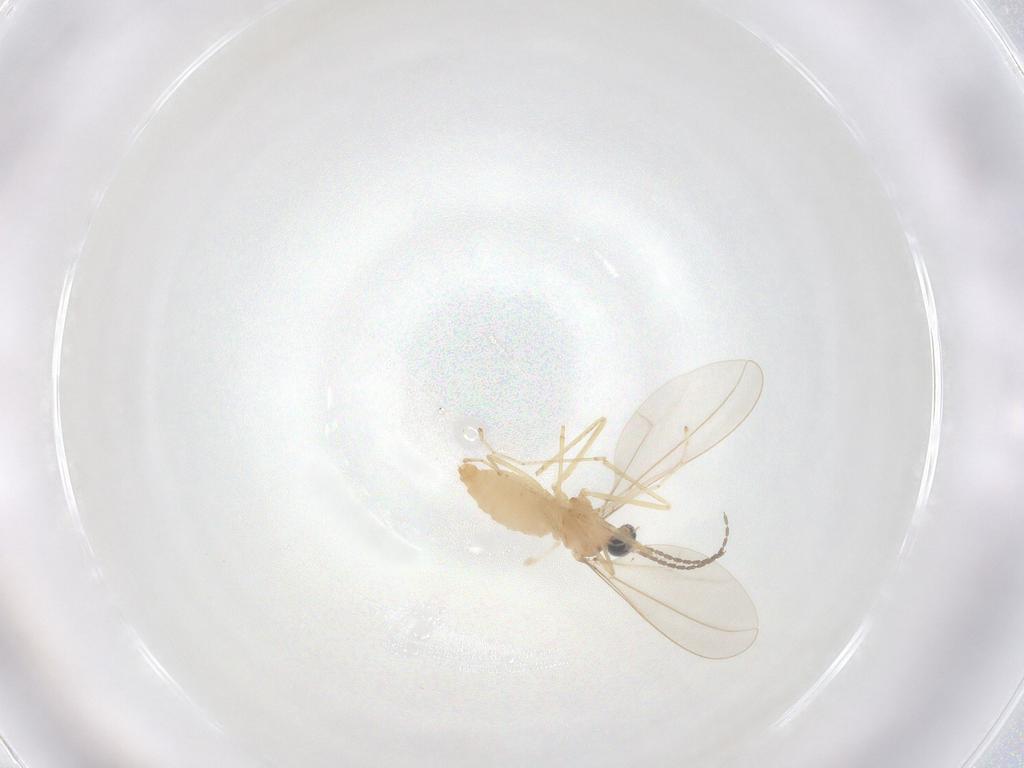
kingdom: Animalia
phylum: Arthropoda
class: Insecta
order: Diptera
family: Cecidomyiidae
